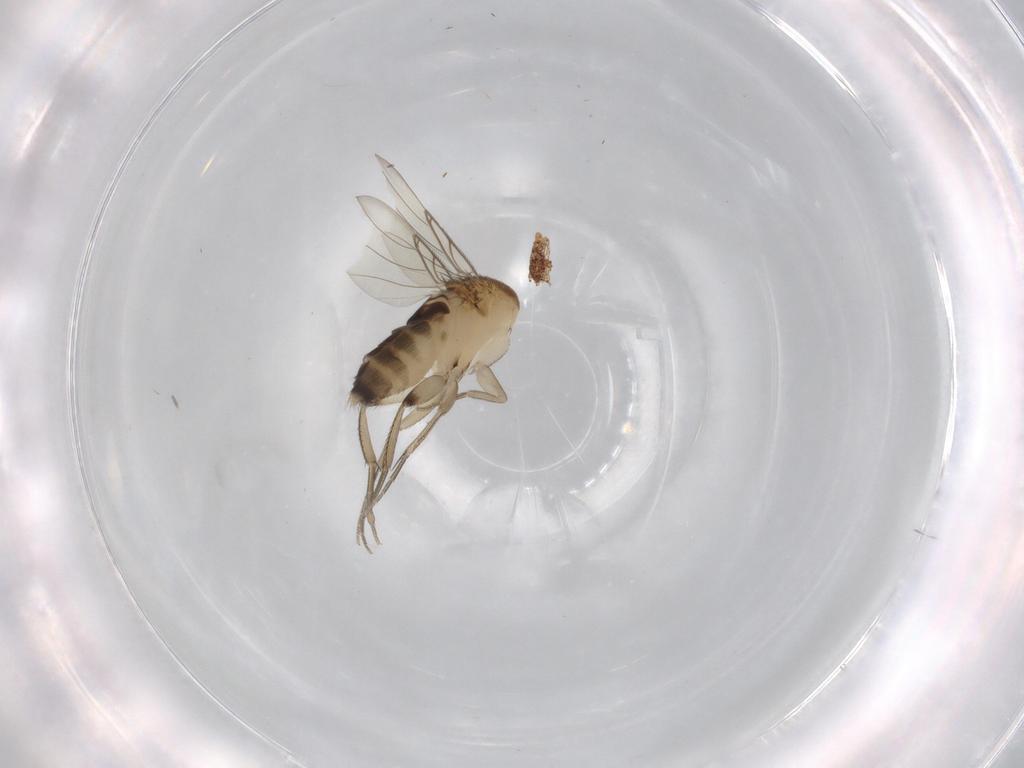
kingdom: Animalia
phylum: Arthropoda
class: Insecta
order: Diptera
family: Phoridae
